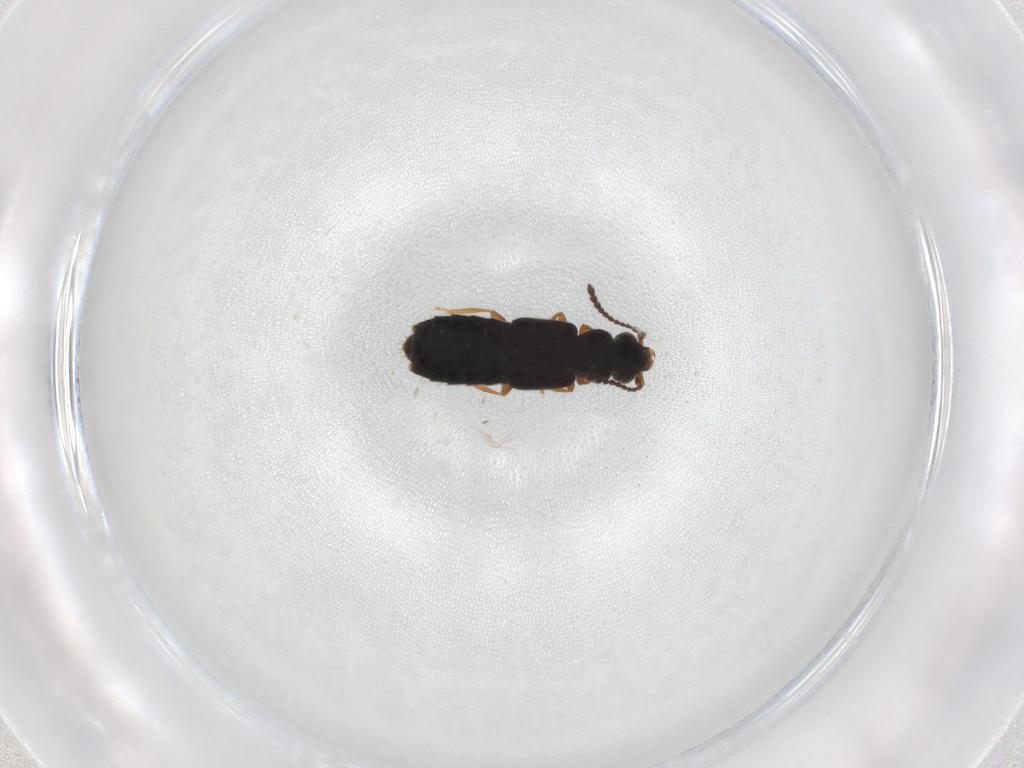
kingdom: Animalia
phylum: Arthropoda
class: Insecta
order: Coleoptera
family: Staphylinidae
